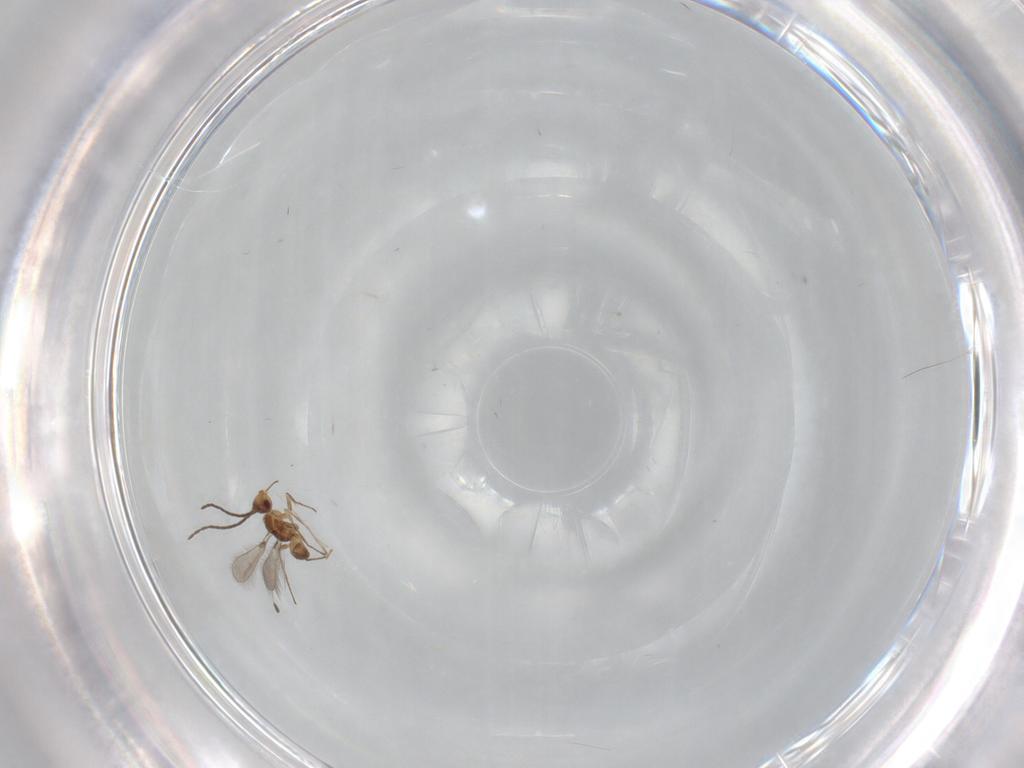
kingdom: Animalia
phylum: Arthropoda
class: Insecta
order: Hymenoptera
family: Mymaridae
